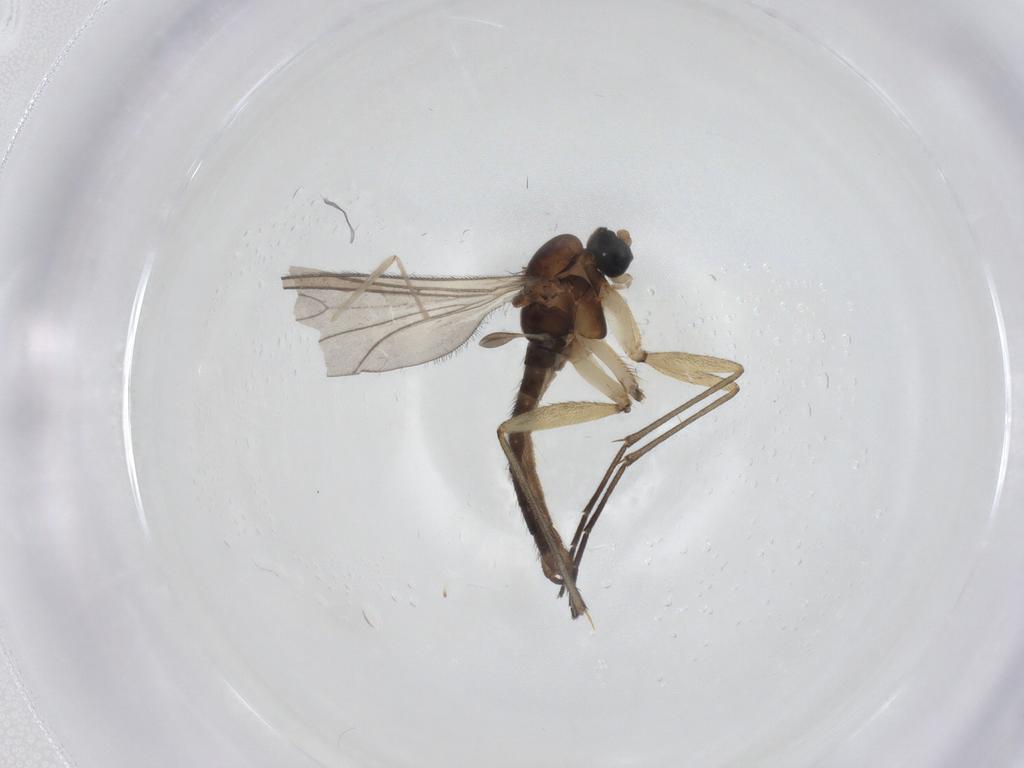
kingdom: Animalia
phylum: Arthropoda
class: Insecta
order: Diptera
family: Sciaridae
